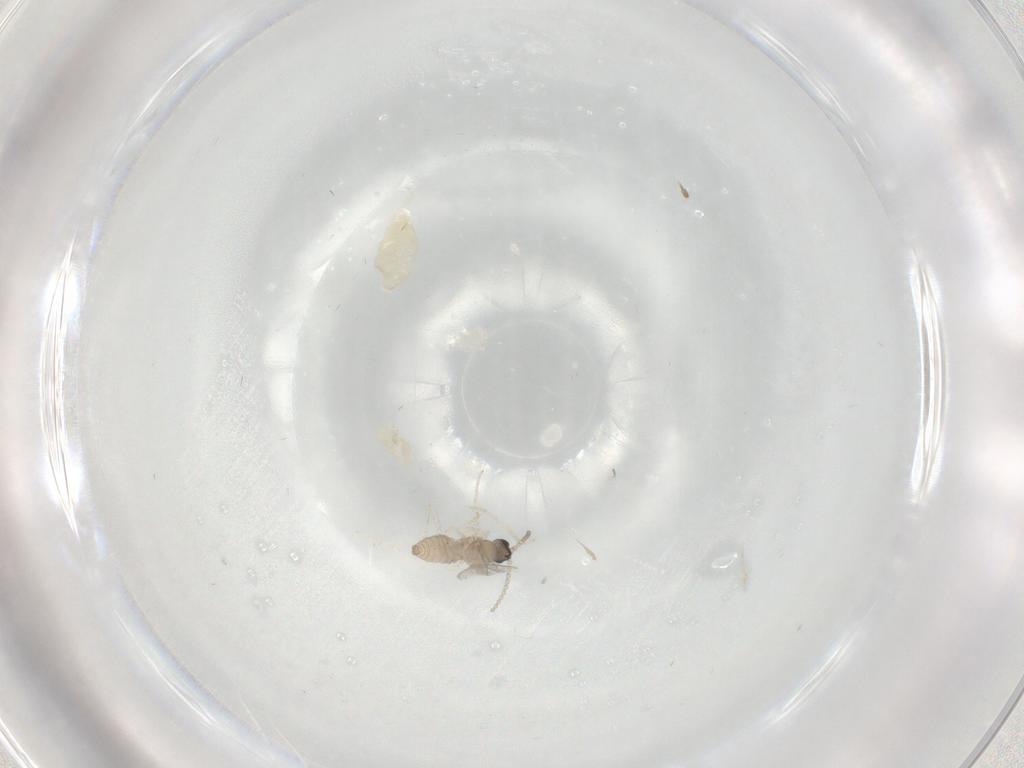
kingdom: Animalia
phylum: Arthropoda
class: Insecta
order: Diptera
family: Cecidomyiidae
